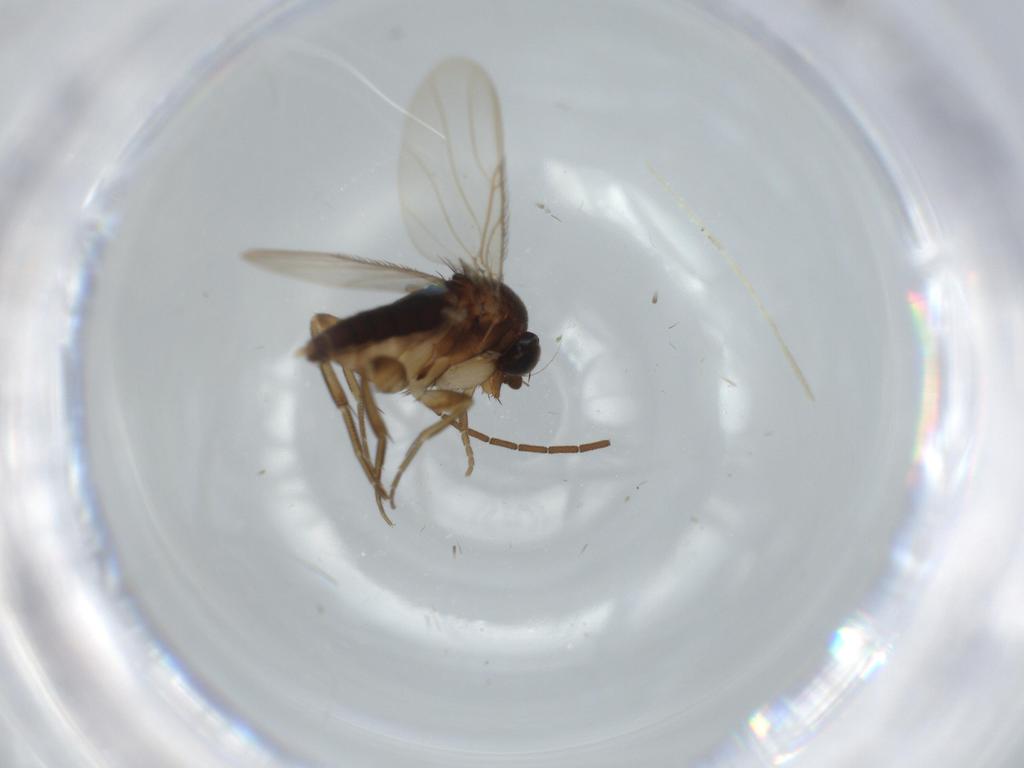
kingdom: Animalia
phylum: Arthropoda
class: Insecta
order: Diptera
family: Phoridae
